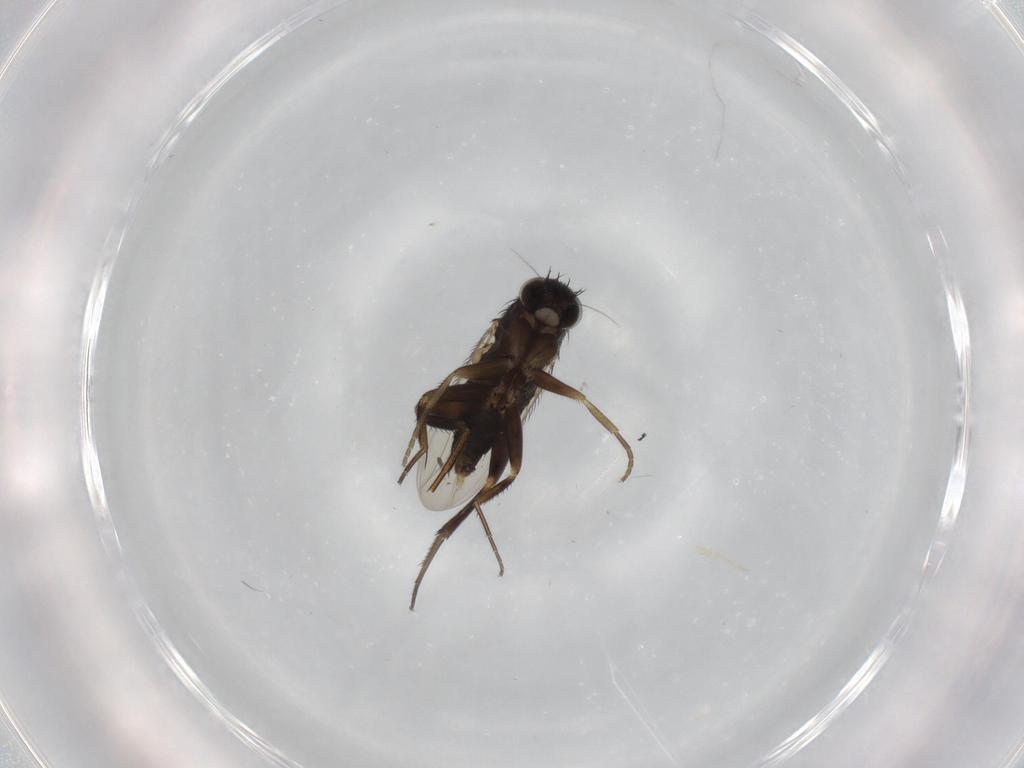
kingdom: Animalia
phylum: Arthropoda
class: Insecta
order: Diptera
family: Phoridae
